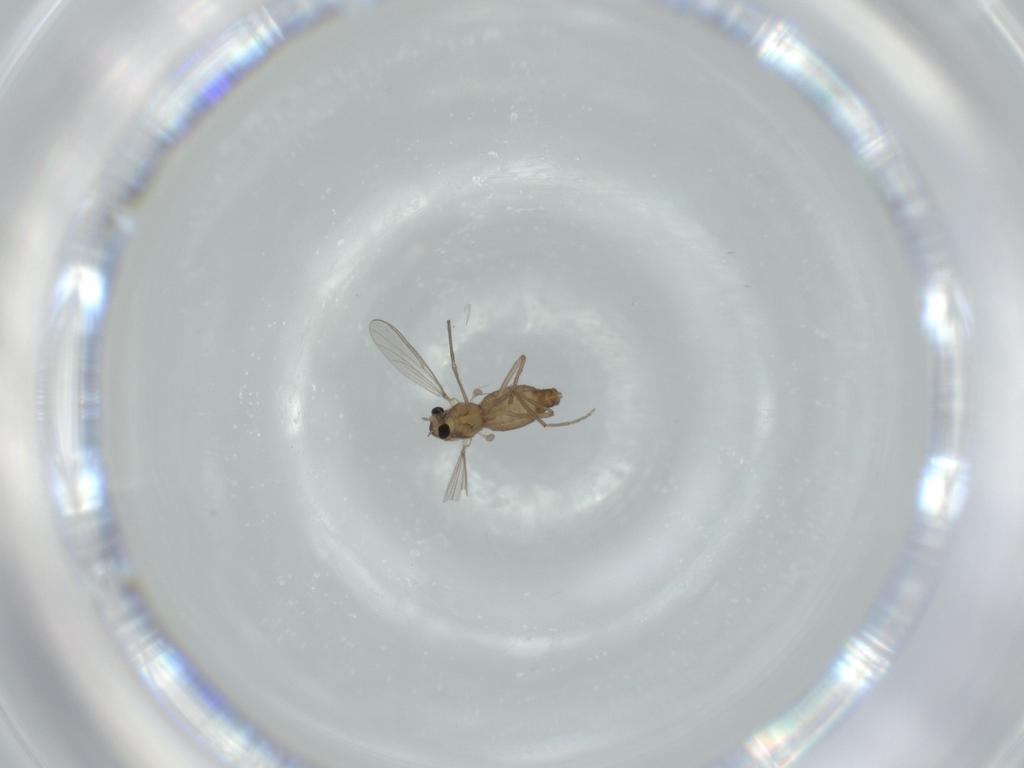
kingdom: Animalia
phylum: Arthropoda
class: Insecta
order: Diptera
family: Chironomidae
